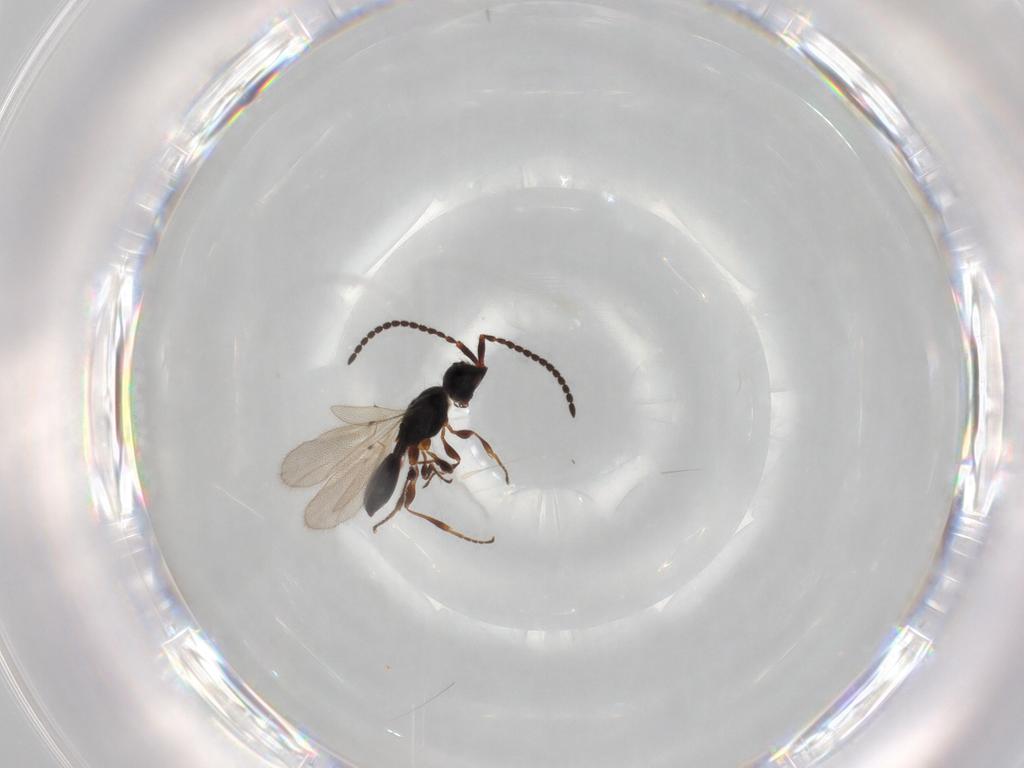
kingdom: Animalia
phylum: Arthropoda
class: Insecta
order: Hymenoptera
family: Diapriidae
